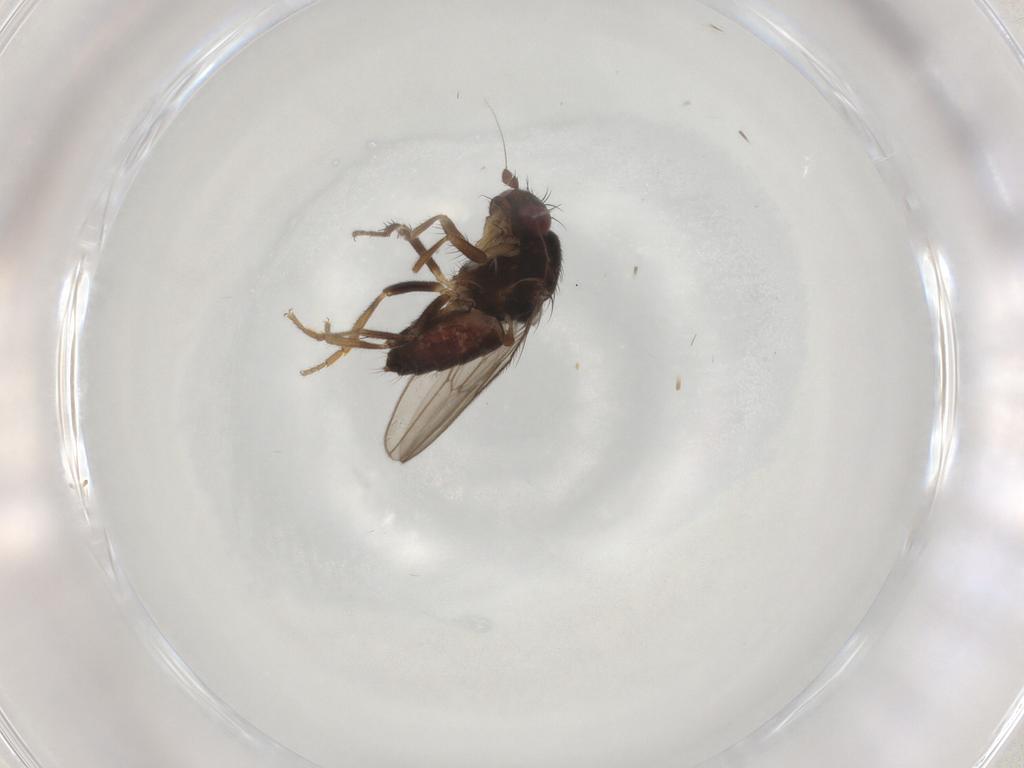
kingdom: Animalia
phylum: Arthropoda
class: Insecta
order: Diptera
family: Sphaeroceridae
